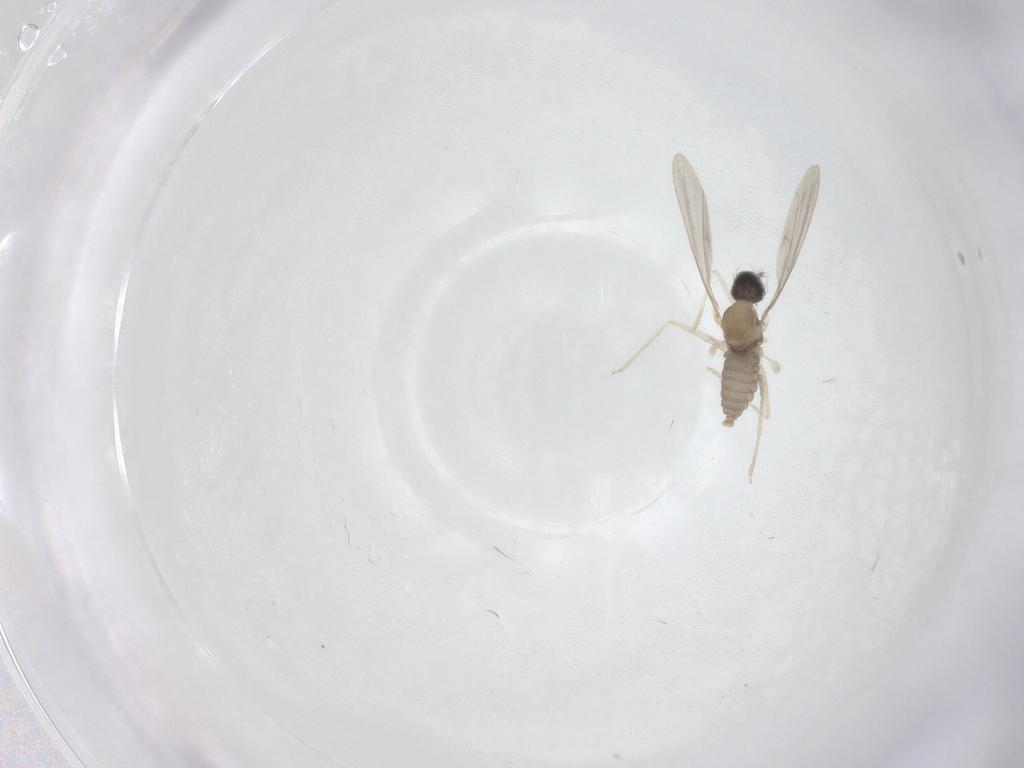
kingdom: Animalia
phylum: Arthropoda
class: Insecta
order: Diptera
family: Cecidomyiidae
